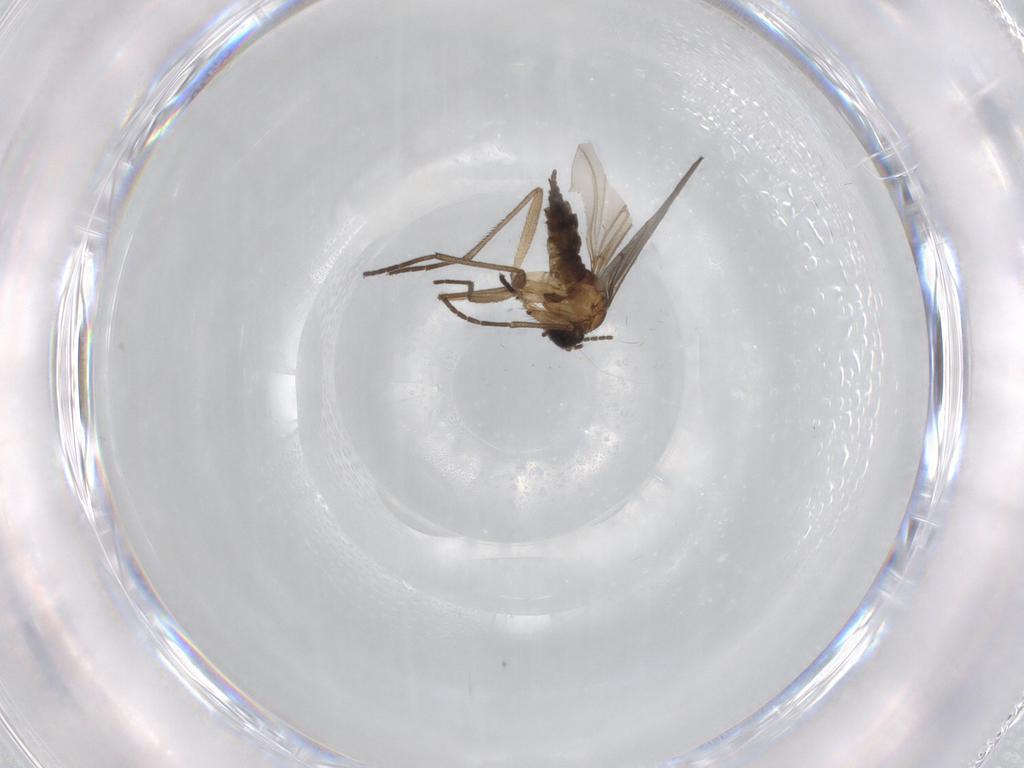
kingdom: Animalia
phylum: Arthropoda
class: Insecta
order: Diptera
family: Sciaridae
